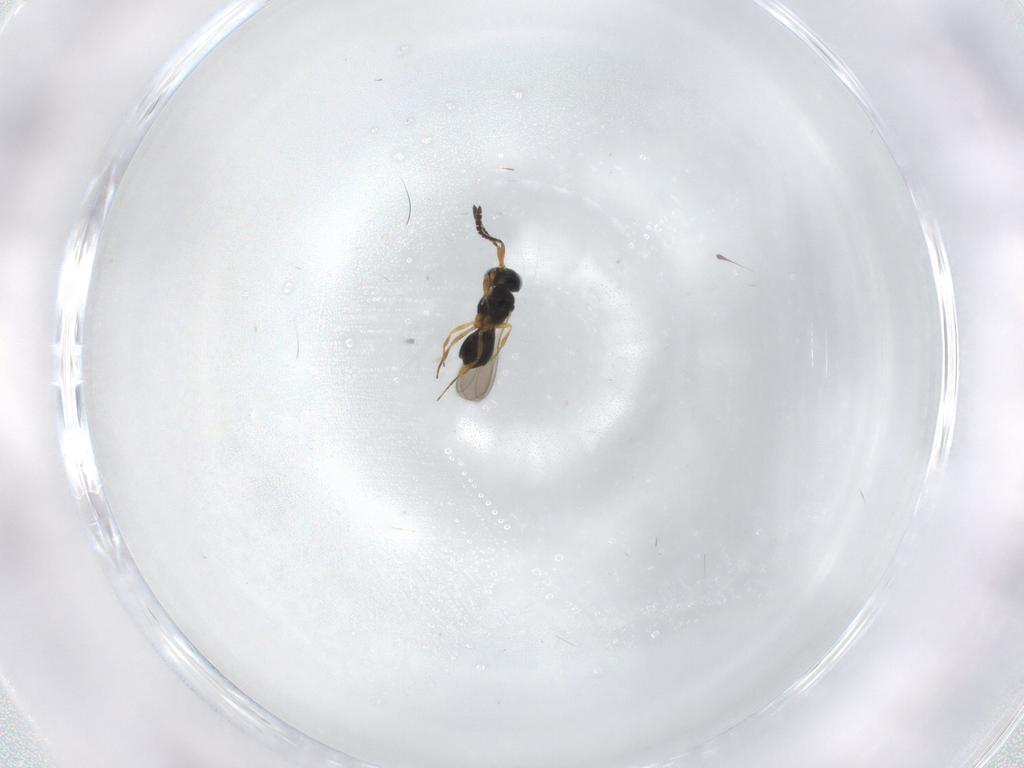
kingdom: Animalia
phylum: Arthropoda
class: Insecta
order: Hymenoptera
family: Scelionidae
